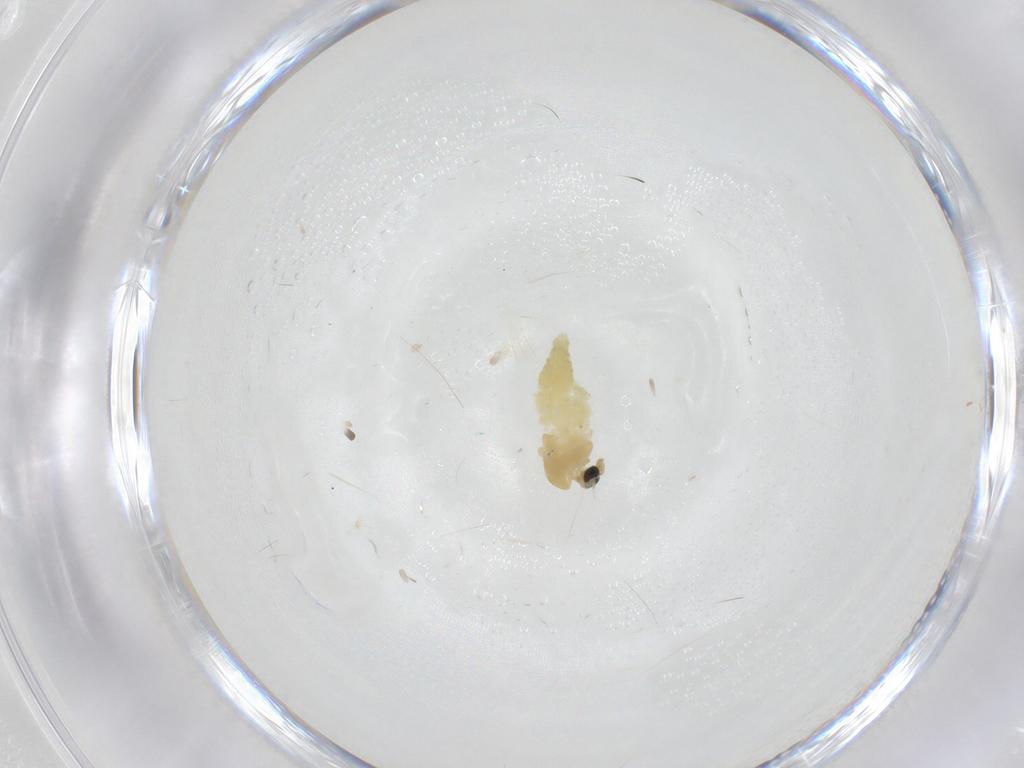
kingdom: Animalia
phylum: Arthropoda
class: Insecta
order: Diptera
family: Chironomidae
